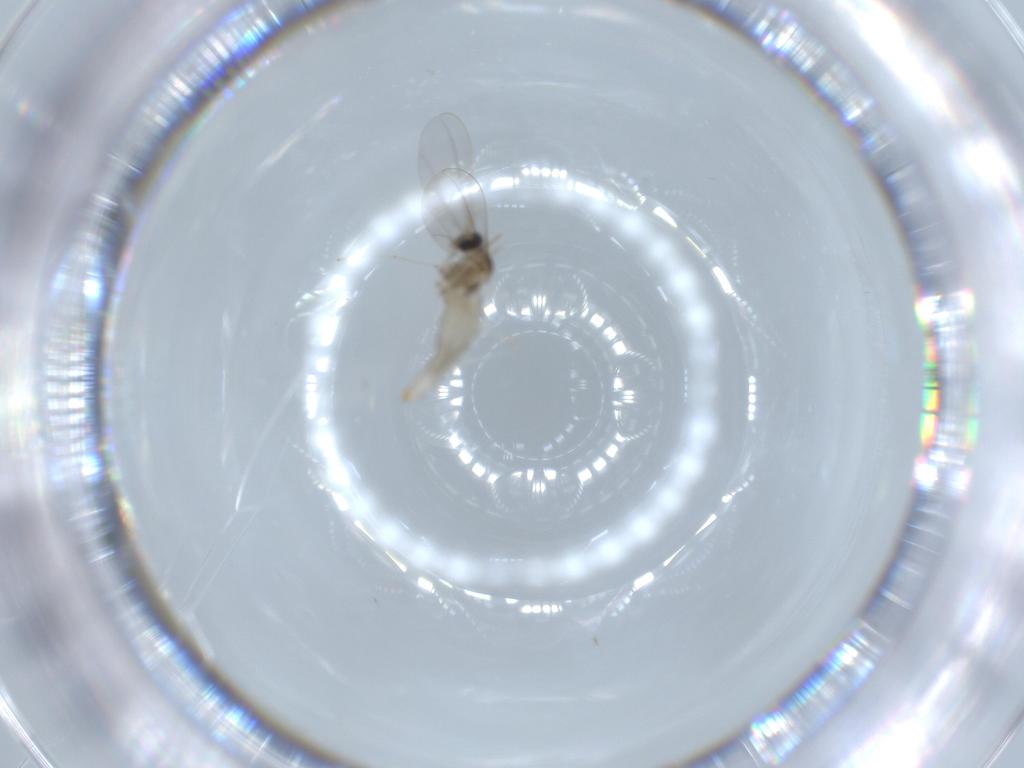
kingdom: Animalia
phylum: Arthropoda
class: Insecta
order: Diptera
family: Cecidomyiidae
